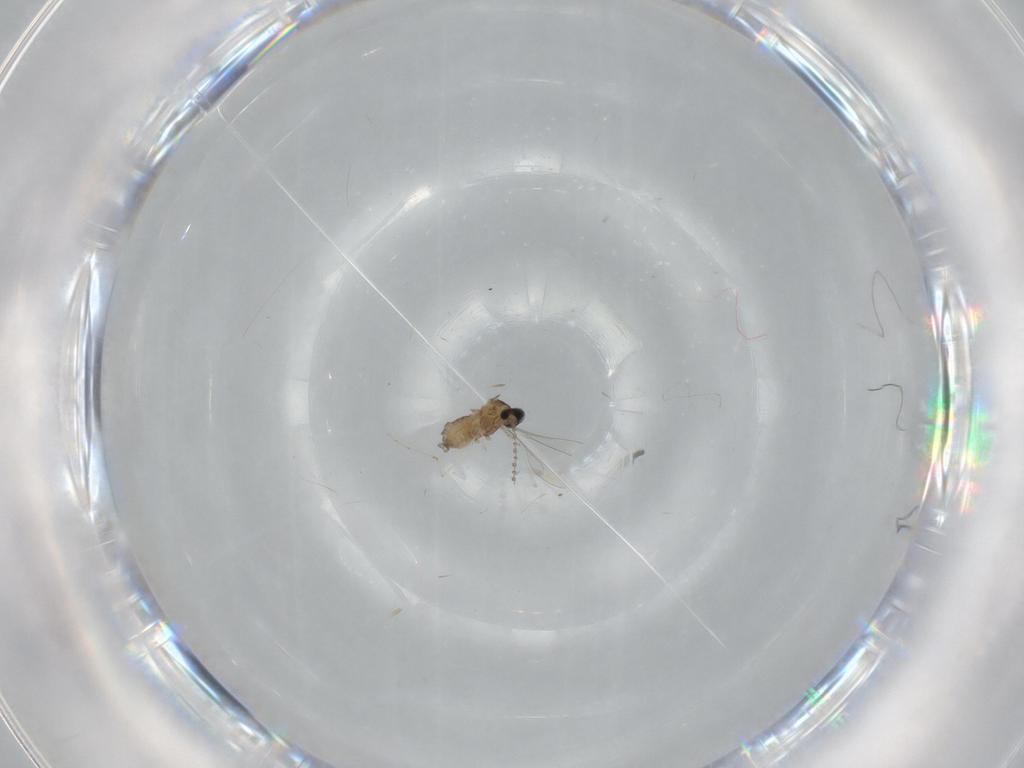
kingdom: Animalia
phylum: Arthropoda
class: Insecta
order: Diptera
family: Cecidomyiidae
